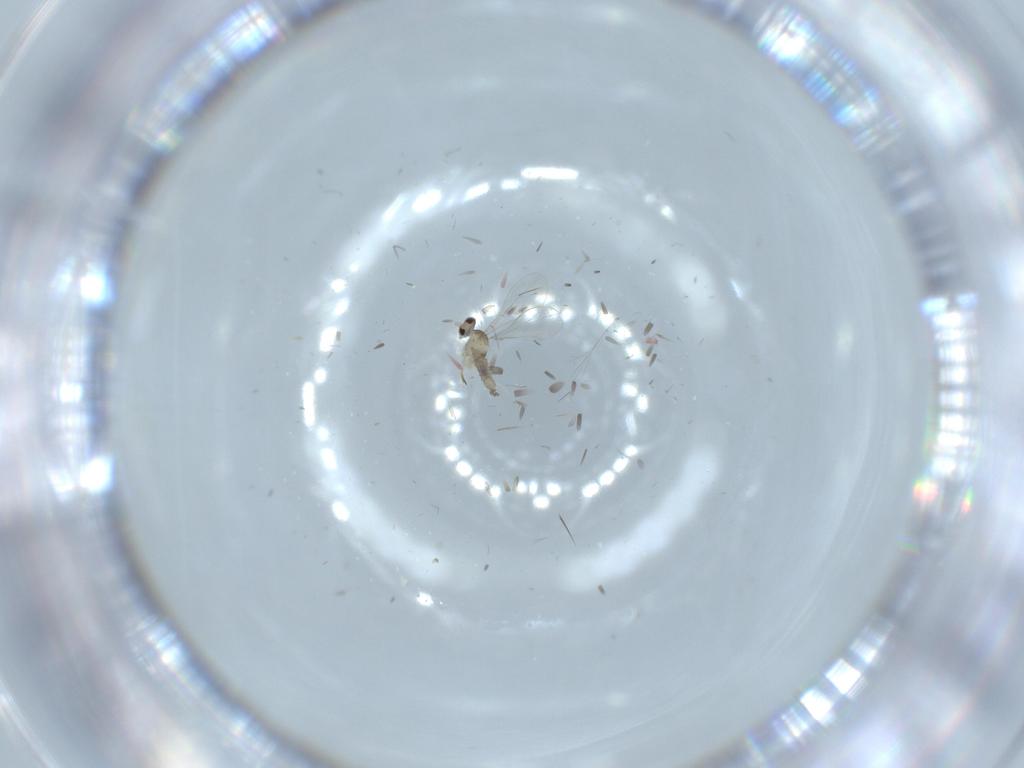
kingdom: Animalia
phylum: Arthropoda
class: Insecta
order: Diptera
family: Cecidomyiidae
